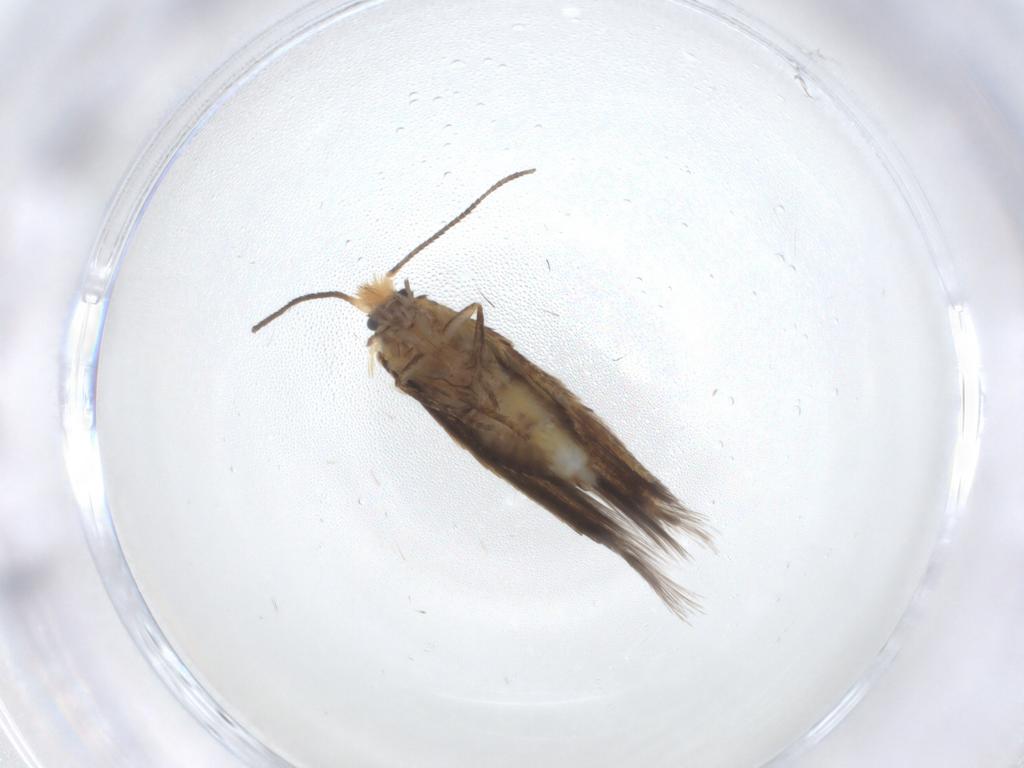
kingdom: Animalia
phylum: Arthropoda
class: Insecta
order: Lepidoptera
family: Nepticulidae
